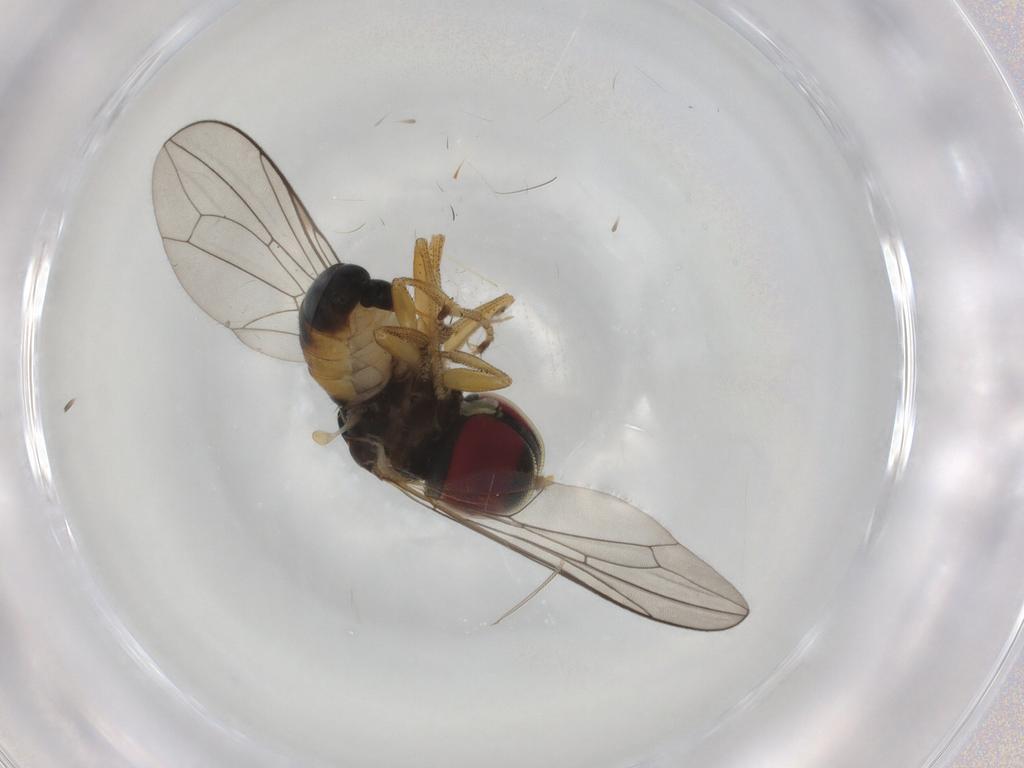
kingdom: Animalia
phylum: Arthropoda
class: Insecta
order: Diptera
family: Pipunculidae
